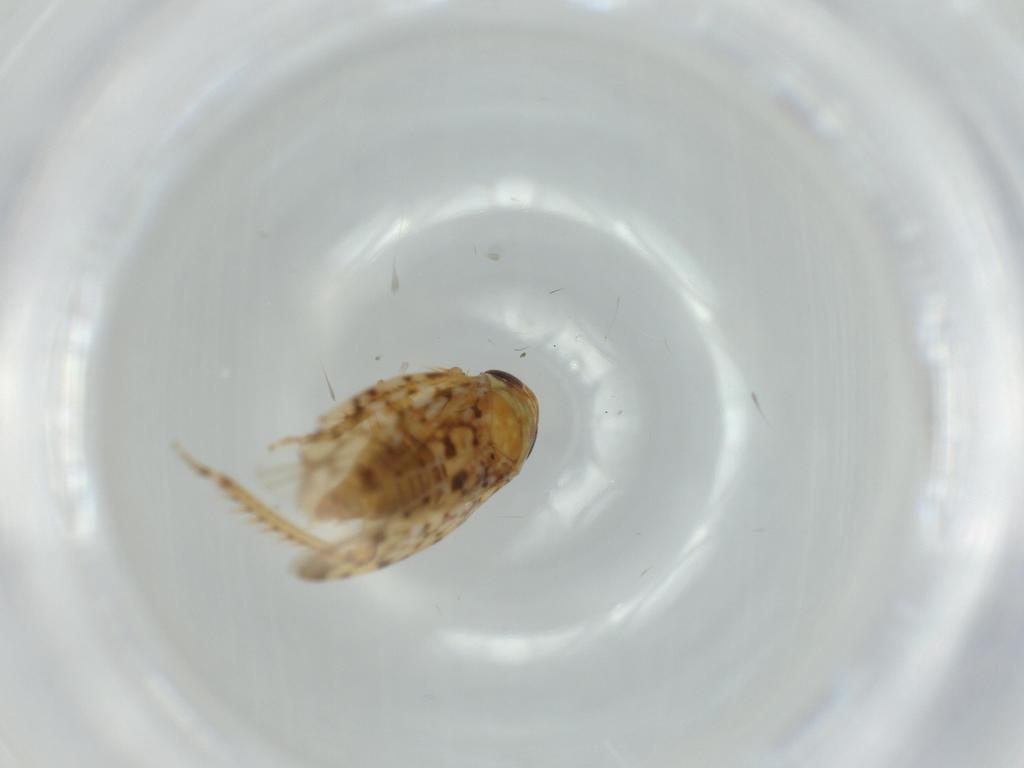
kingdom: Animalia
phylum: Arthropoda
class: Insecta
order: Hemiptera
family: Cicadellidae
